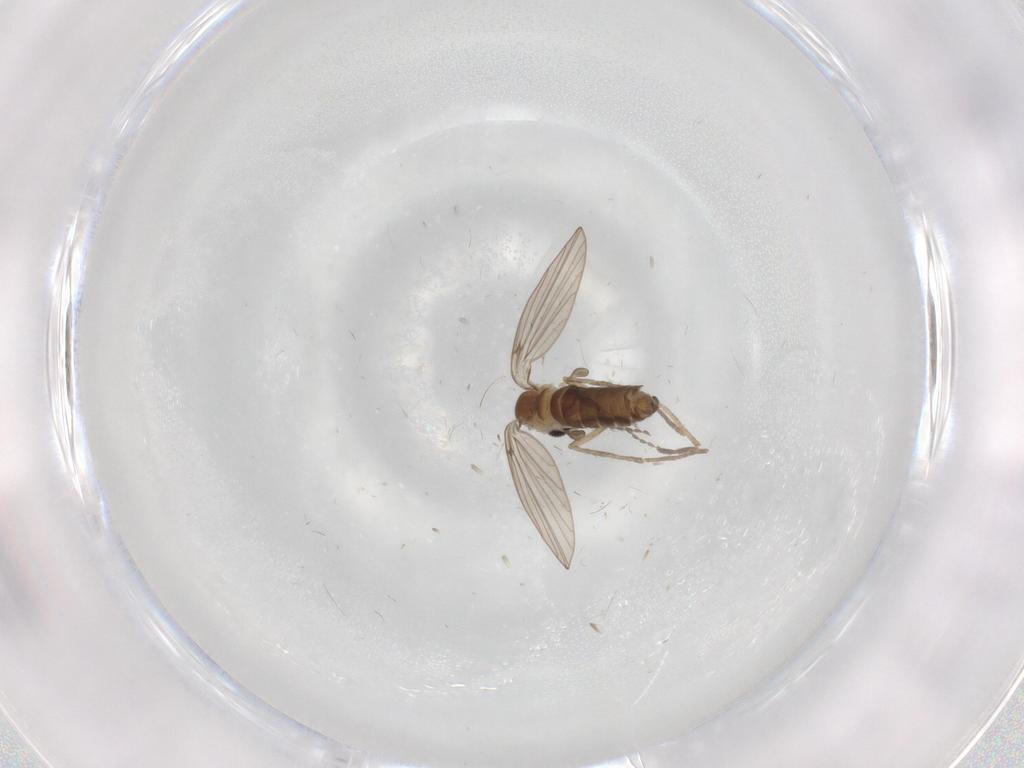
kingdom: Animalia
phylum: Arthropoda
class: Insecta
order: Diptera
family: Psychodidae
